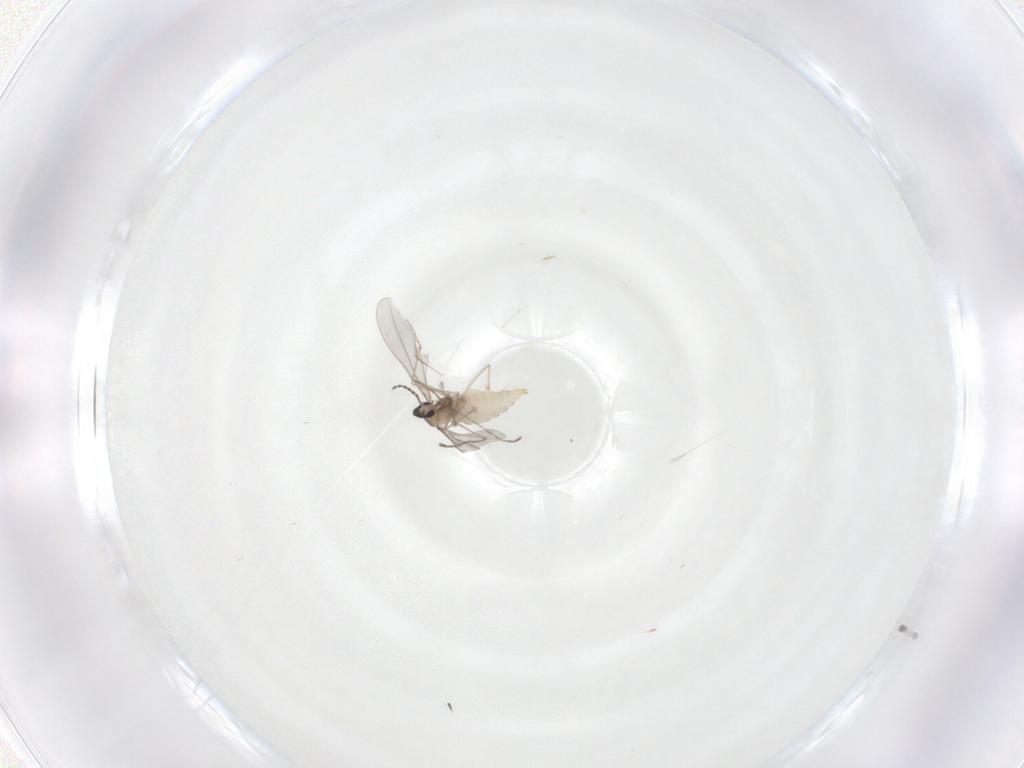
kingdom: Animalia
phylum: Arthropoda
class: Insecta
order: Diptera
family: Cecidomyiidae
